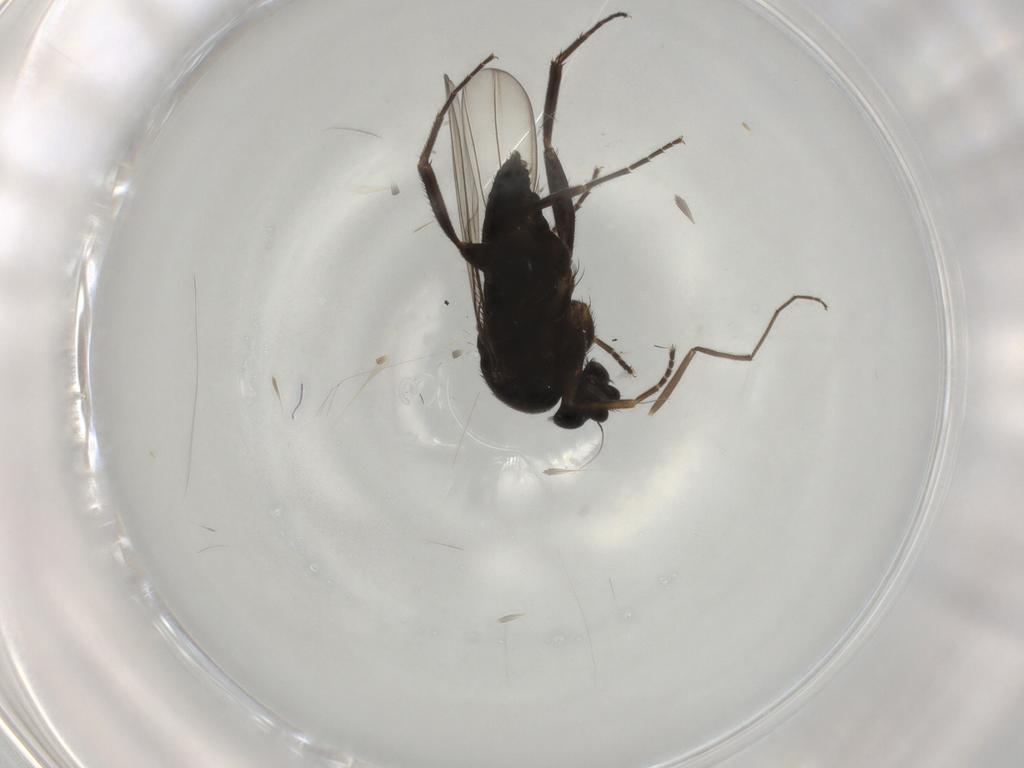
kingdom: Animalia
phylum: Arthropoda
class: Insecta
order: Diptera
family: Phoridae
